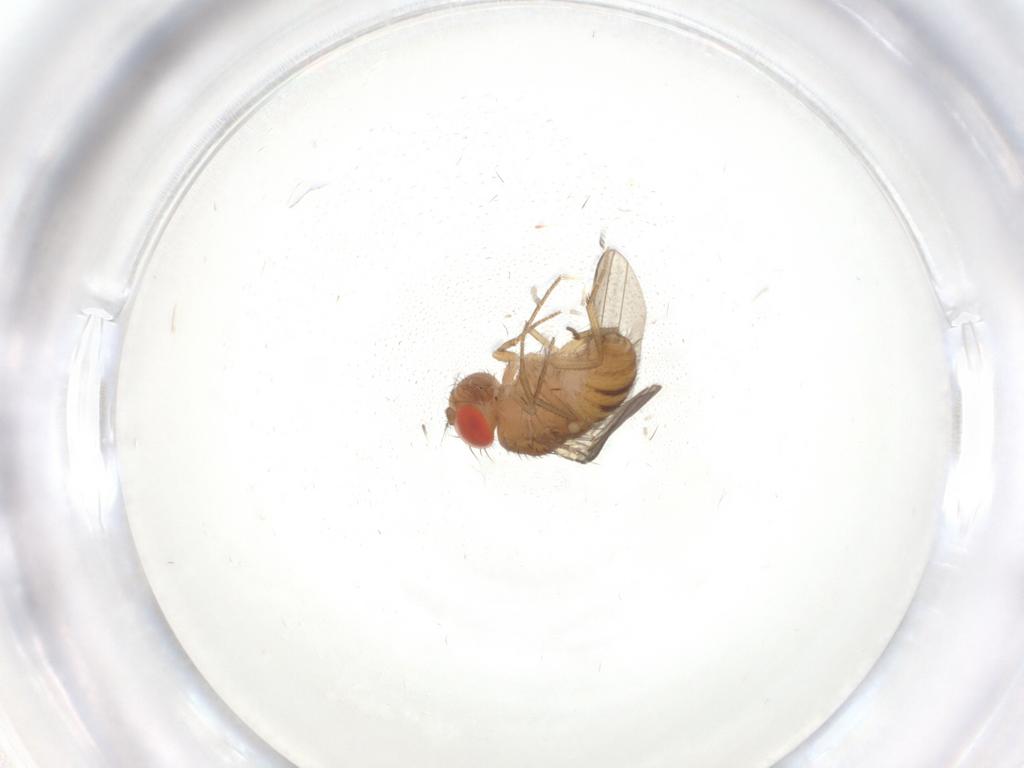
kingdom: Animalia
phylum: Arthropoda
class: Insecta
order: Diptera
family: Drosophilidae
